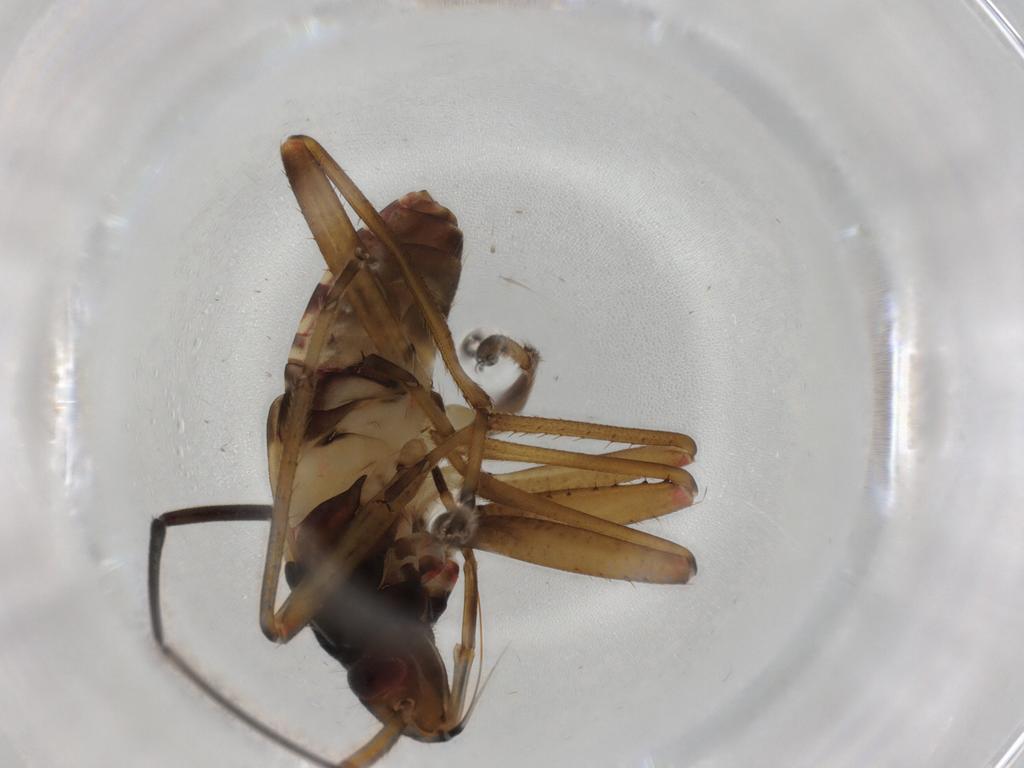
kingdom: Animalia
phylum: Arthropoda
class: Insecta
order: Hemiptera
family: Rhyparochromidae
